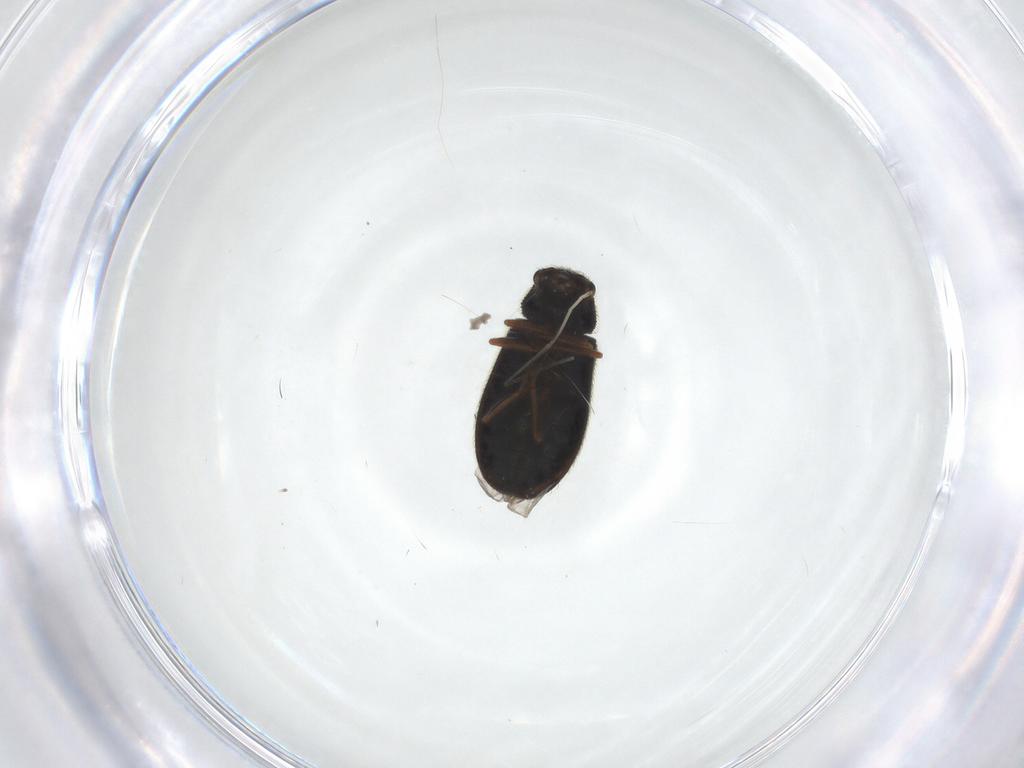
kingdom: Animalia
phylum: Arthropoda
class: Insecta
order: Coleoptera
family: Melyridae
